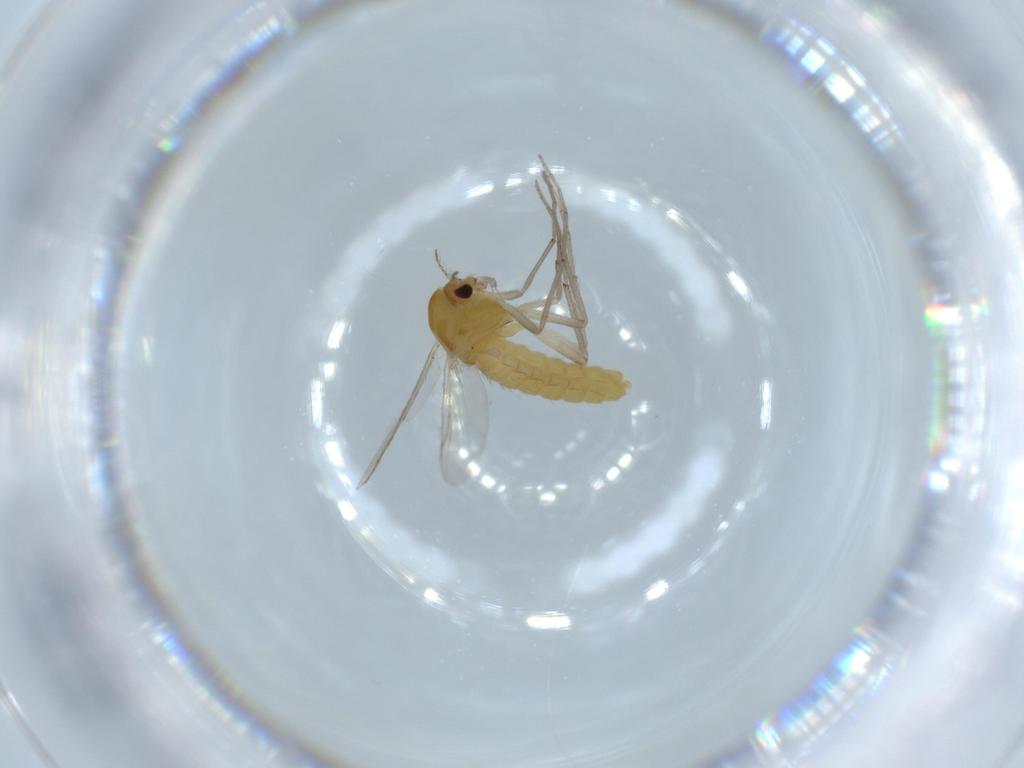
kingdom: Animalia
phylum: Arthropoda
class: Insecta
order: Diptera
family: Chironomidae
